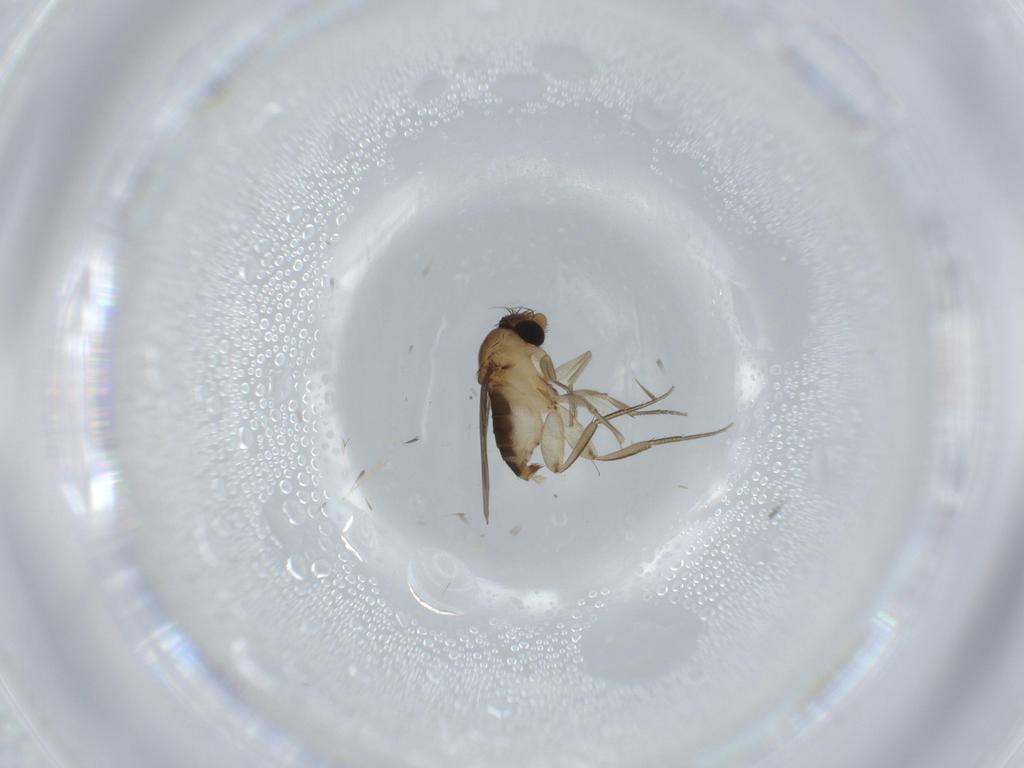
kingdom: Animalia
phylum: Arthropoda
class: Insecta
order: Diptera
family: Phoridae
